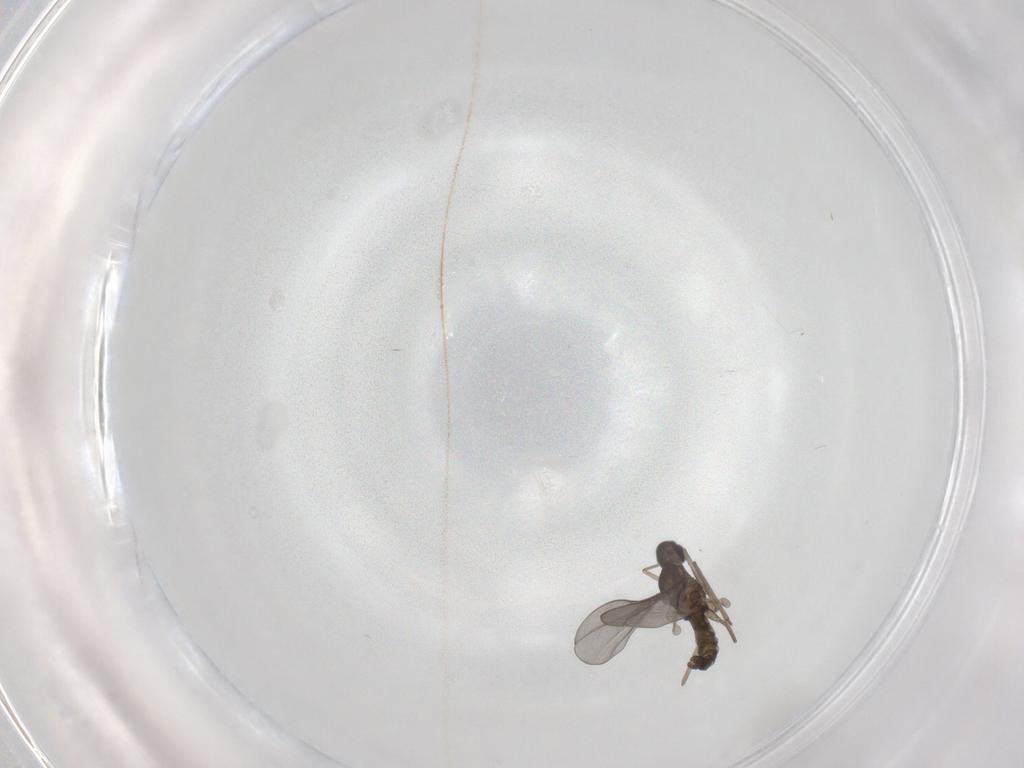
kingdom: Animalia
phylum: Arthropoda
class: Insecta
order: Diptera
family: Cecidomyiidae
